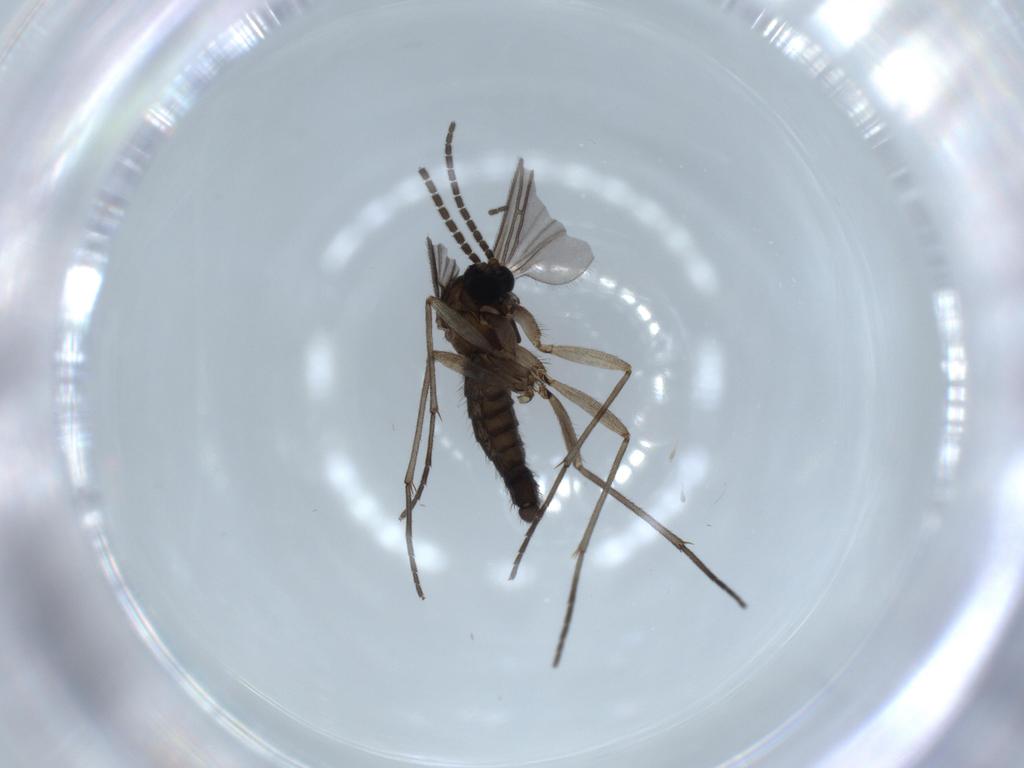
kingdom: Animalia
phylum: Arthropoda
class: Insecta
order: Diptera
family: Sciaridae
